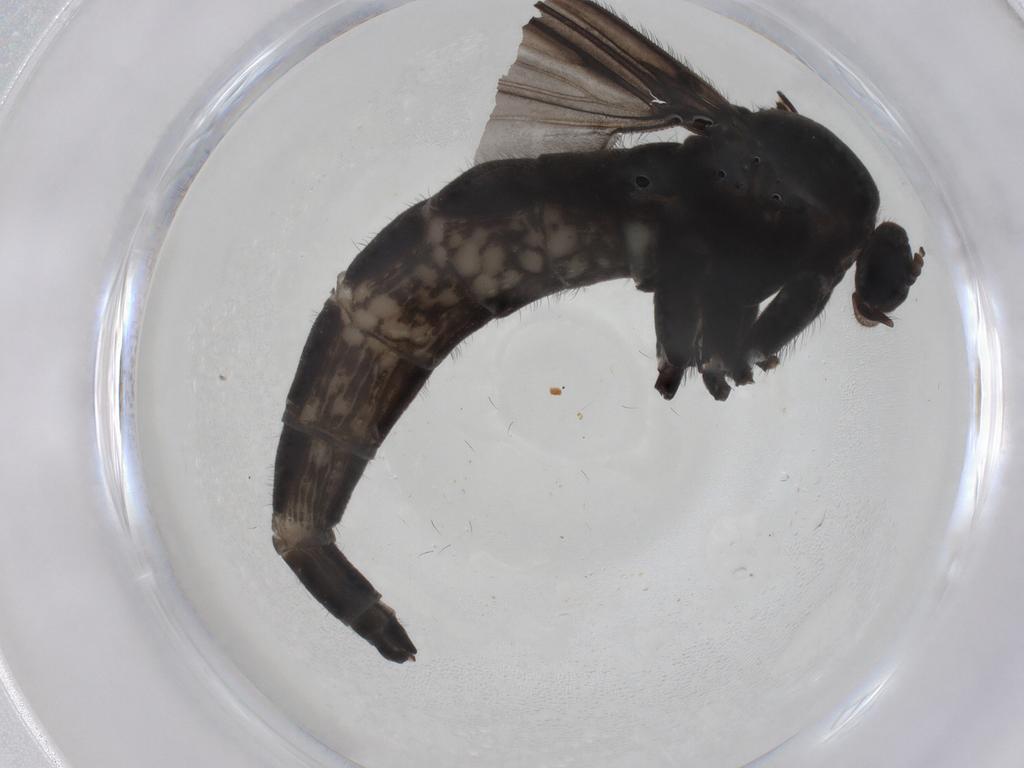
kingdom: Animalia
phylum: Arthropoda
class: Insecta
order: Diptera
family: Sciaridae
